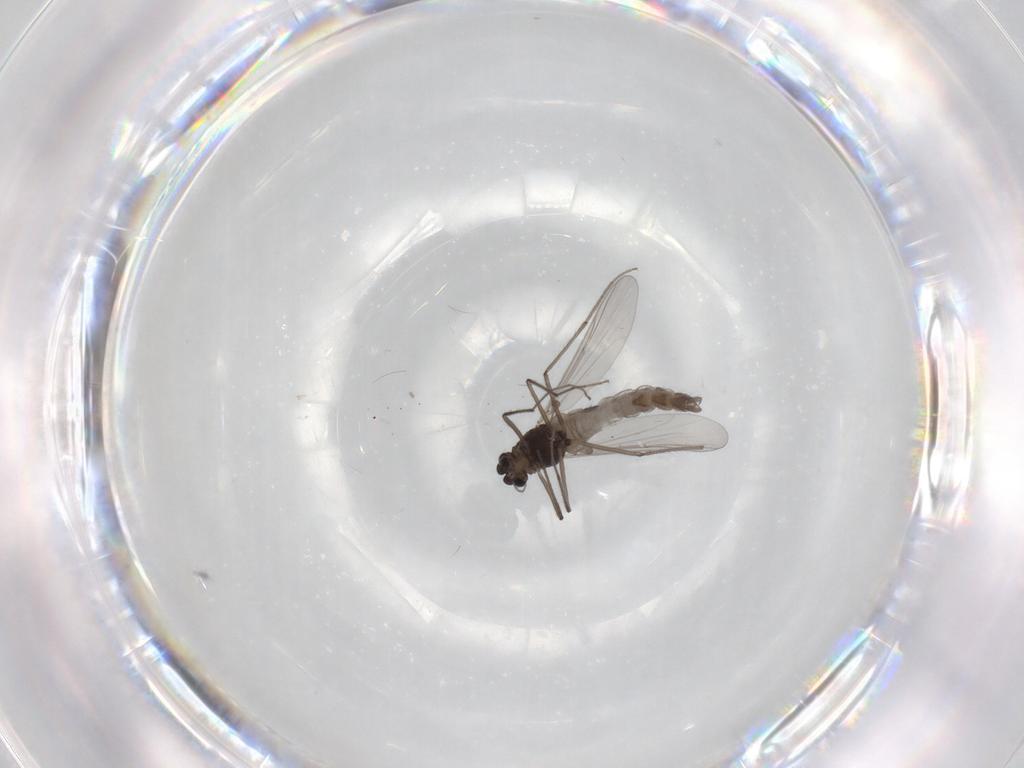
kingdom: Animalia
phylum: Arthropoda
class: Insecta
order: Diptera
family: Chironomidae
